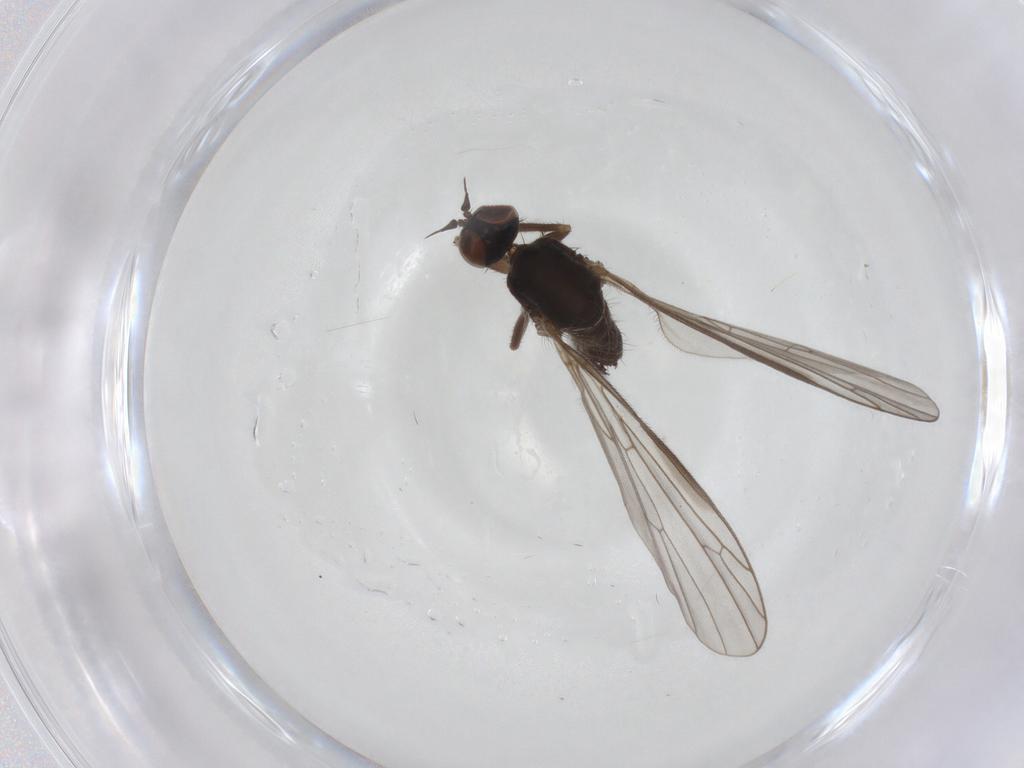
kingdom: Animalia
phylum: Arthropoda
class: Insecta
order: Diptera
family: Empididae
